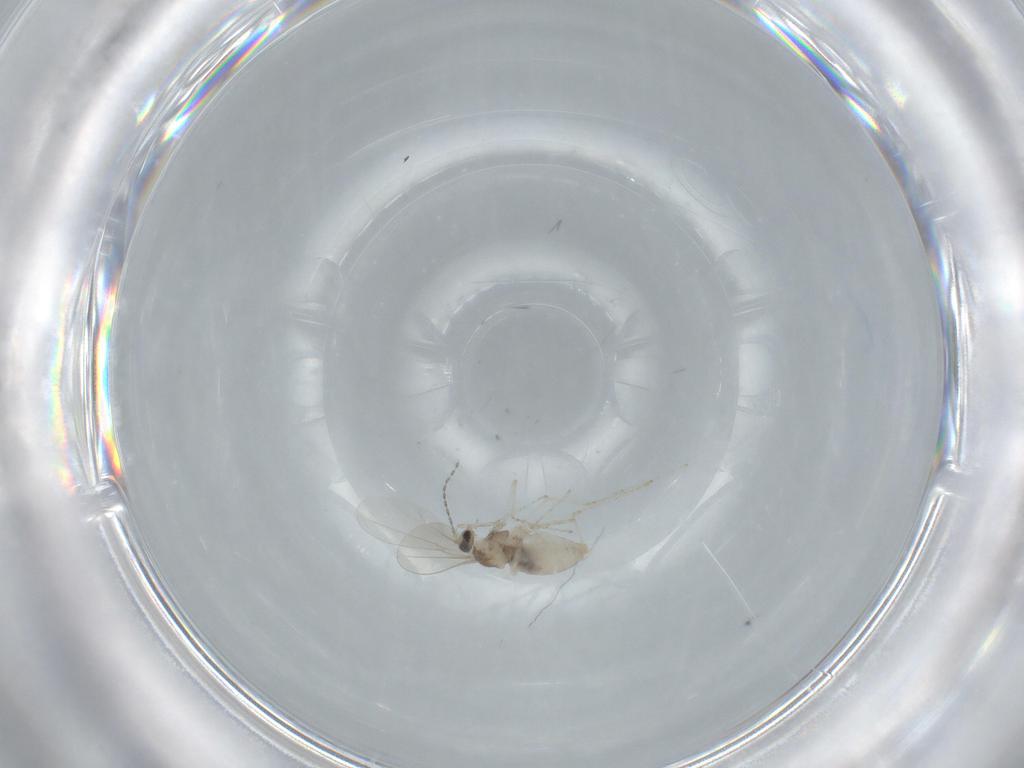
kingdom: Animalia
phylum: Arthropoda
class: Insecta
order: Diptera
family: Cecidomyiidae
